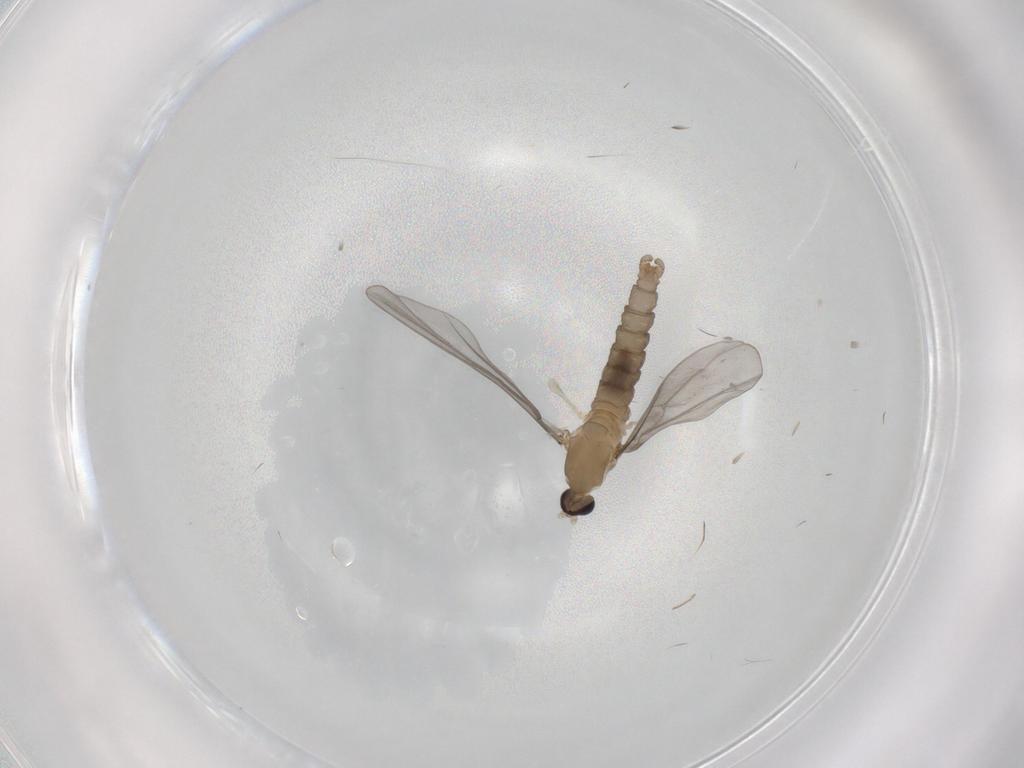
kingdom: Animalia
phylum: Arthropoda
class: Insecta
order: Diptera
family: Cecidomyiidae
